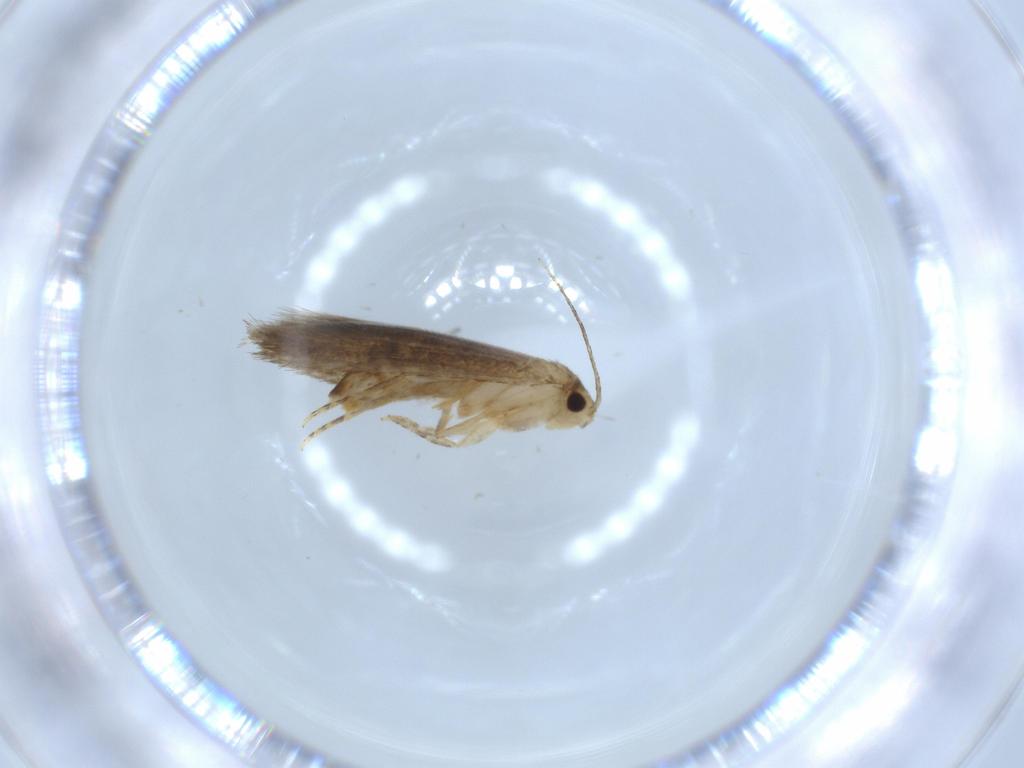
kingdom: Animalia
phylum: Arthropoda
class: Insecta
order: Lepidoptera
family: Tineidae
